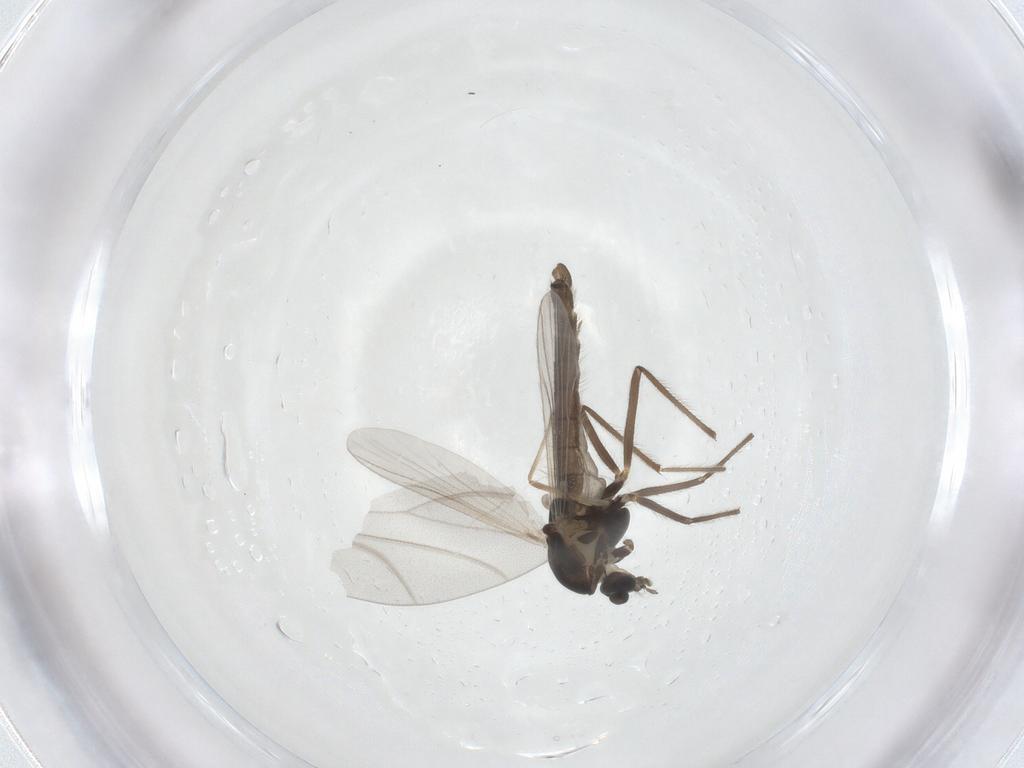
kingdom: Animalia
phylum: Arthropoda
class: Insecta
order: Diptera
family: Chironomidae
